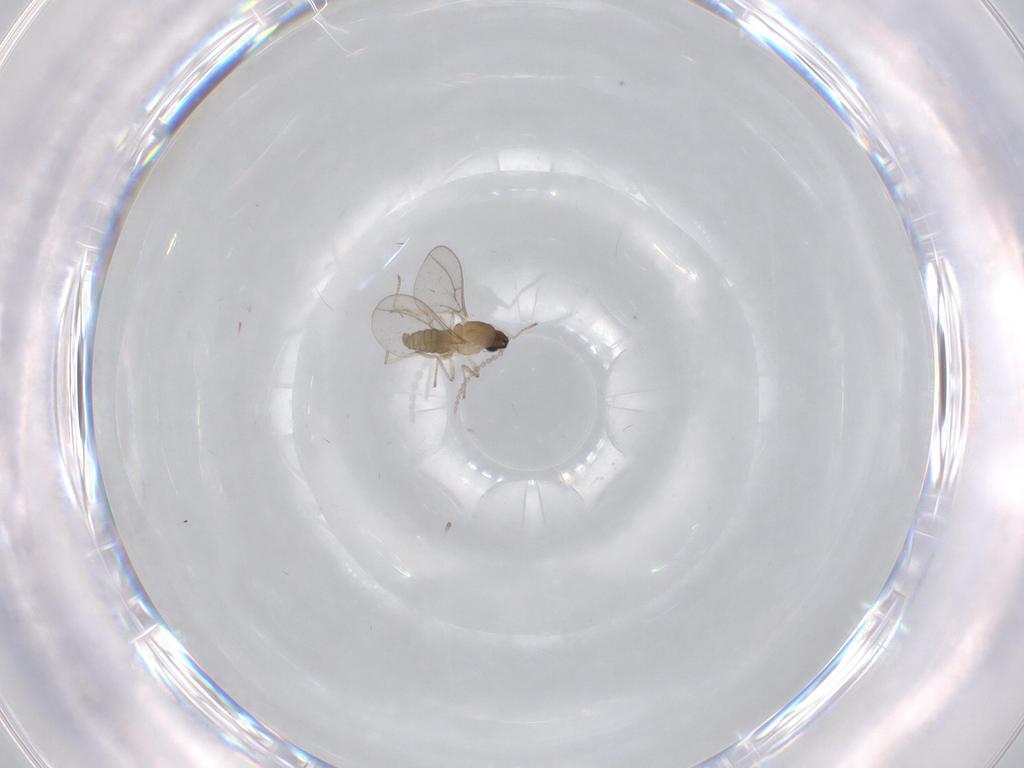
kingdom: Animalia
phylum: Arthropoda
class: Insecta
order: Diptera
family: Cecidomyiidae
